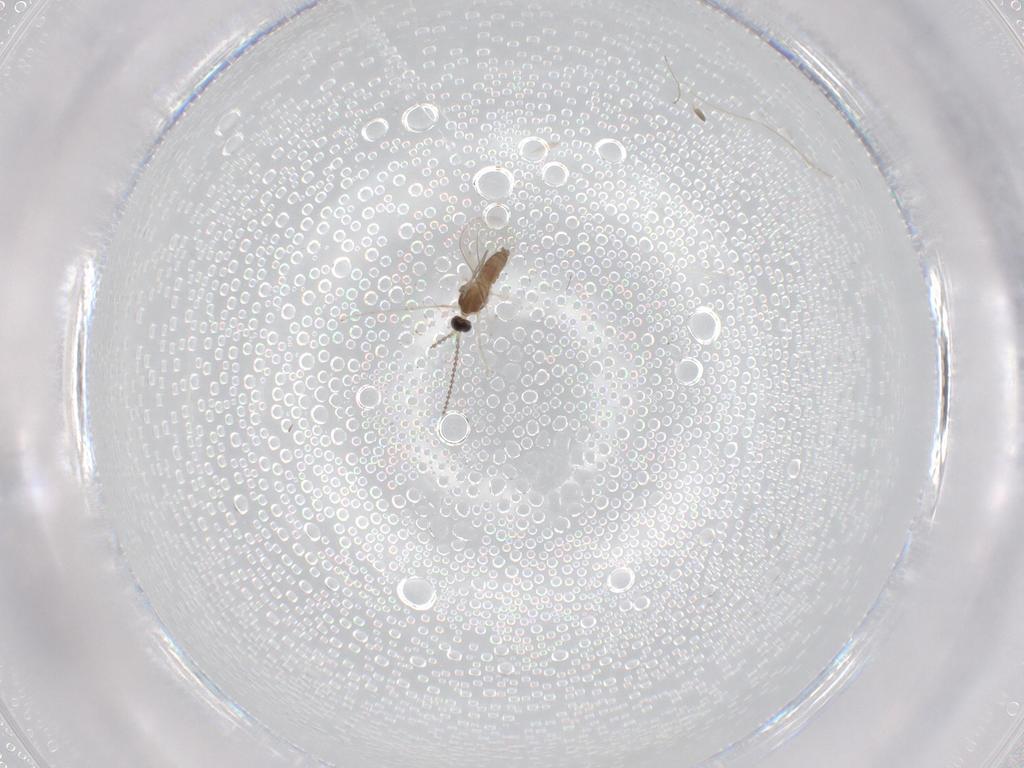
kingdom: Animalia
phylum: Arthropoda
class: Insecta
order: Diptera
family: Cecidomyiidae
